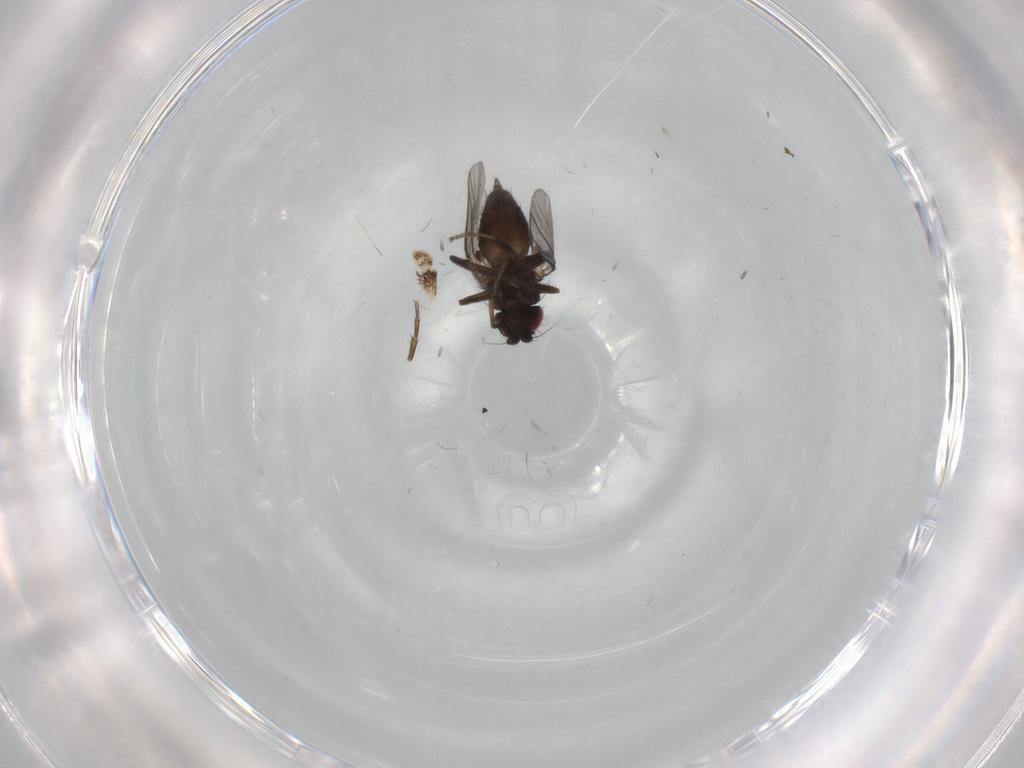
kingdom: Animalia
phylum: Arthropoda
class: Insecta
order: Diptera
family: Milichiidae
